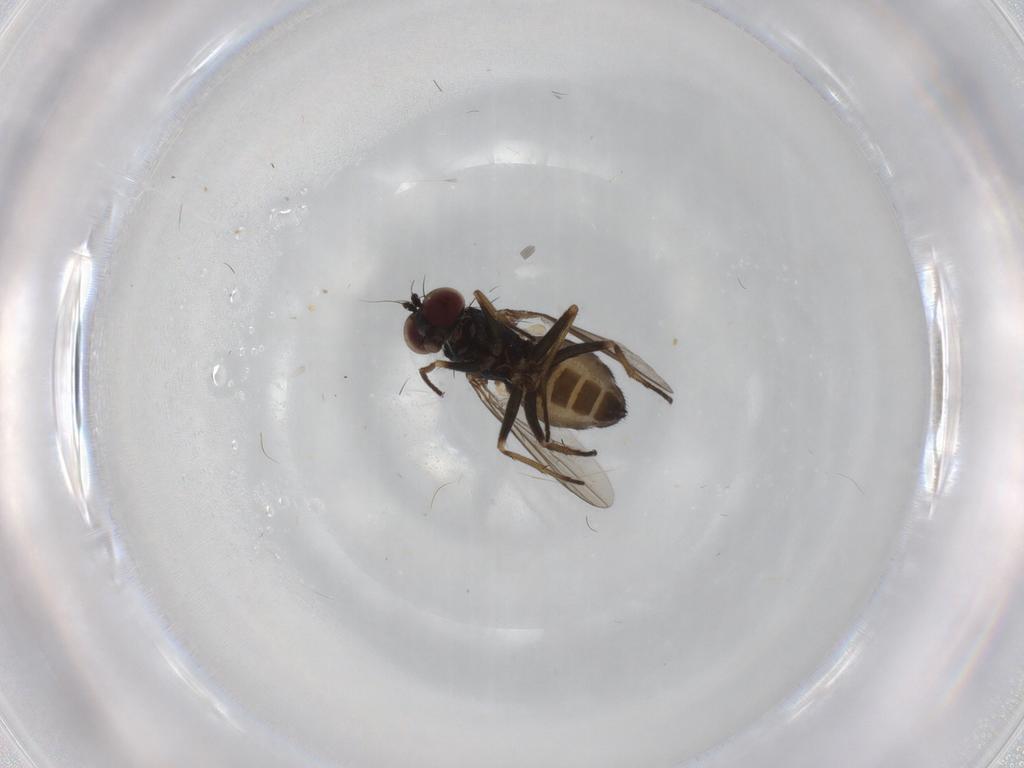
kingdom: Animalia
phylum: Arthropoda
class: Insecta
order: Diptera
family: Dolichopodidae
